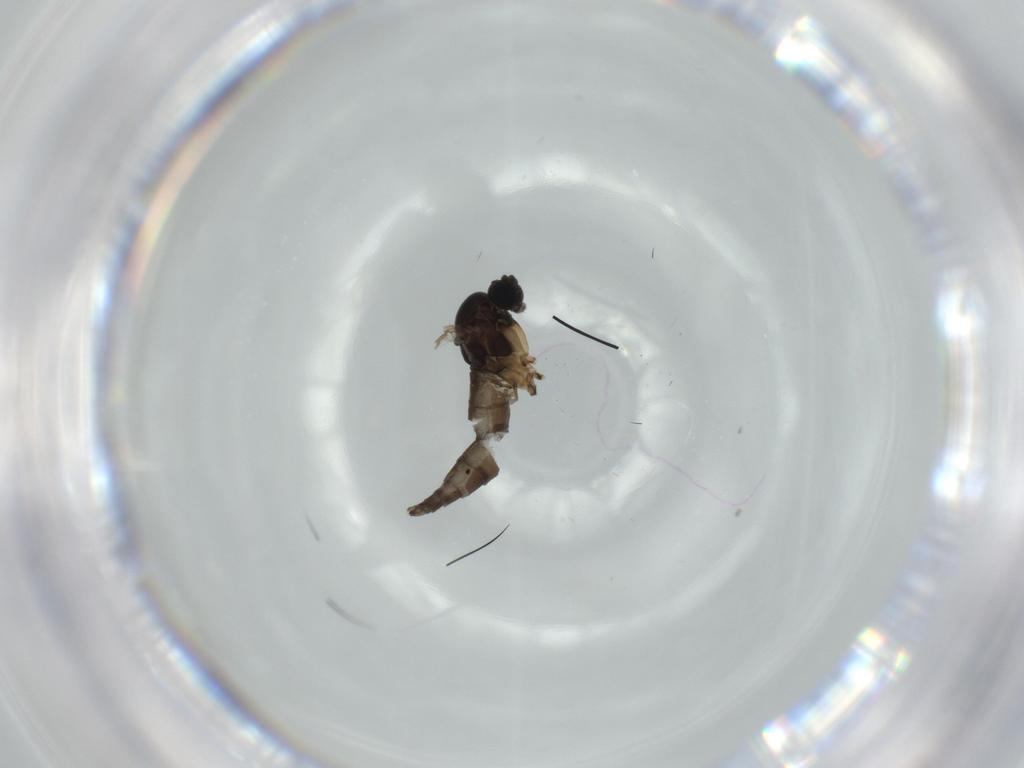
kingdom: Animalia
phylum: Arthropoda
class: Insecta
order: Diptera
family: Sciaridae
